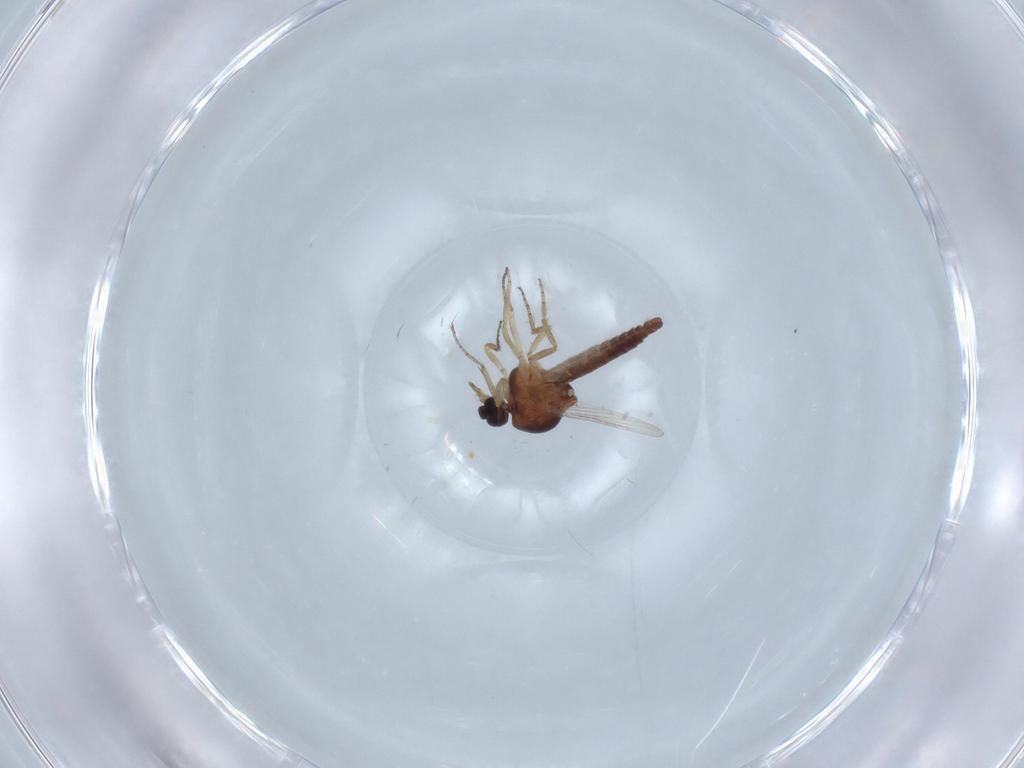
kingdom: Animalia
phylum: Arthropoda
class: Insecta
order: Diptera
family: Ceratopogonidae
